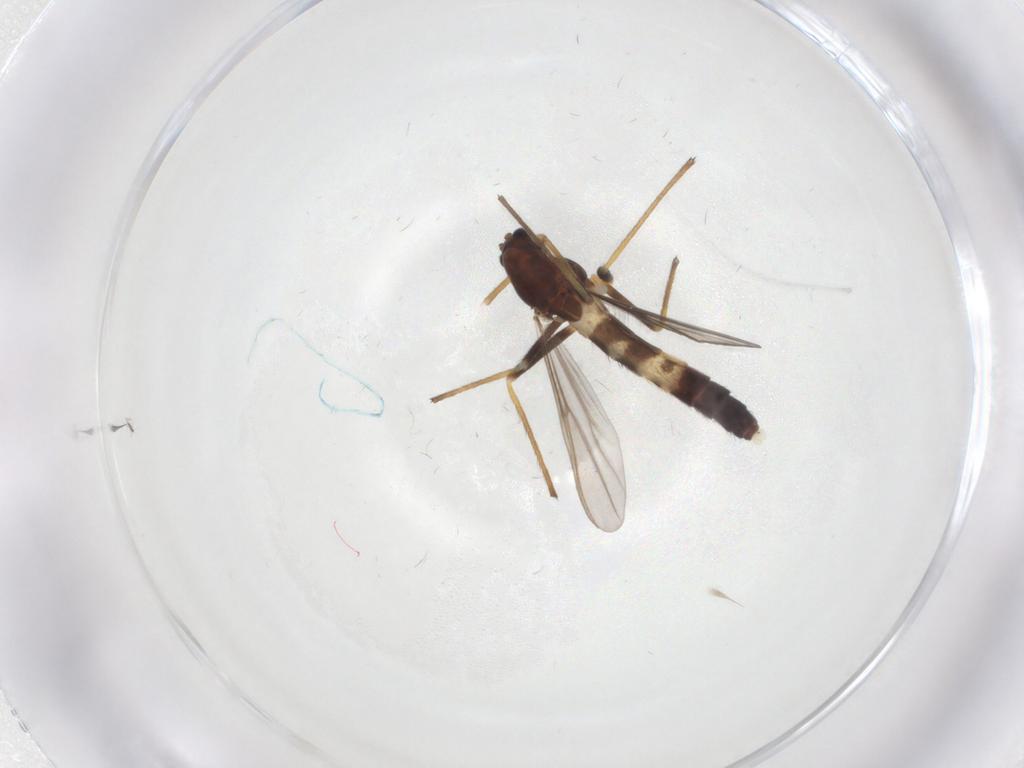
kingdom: Animalia
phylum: Arthropoda
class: Insecta
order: Diptera
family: Chironomidae
